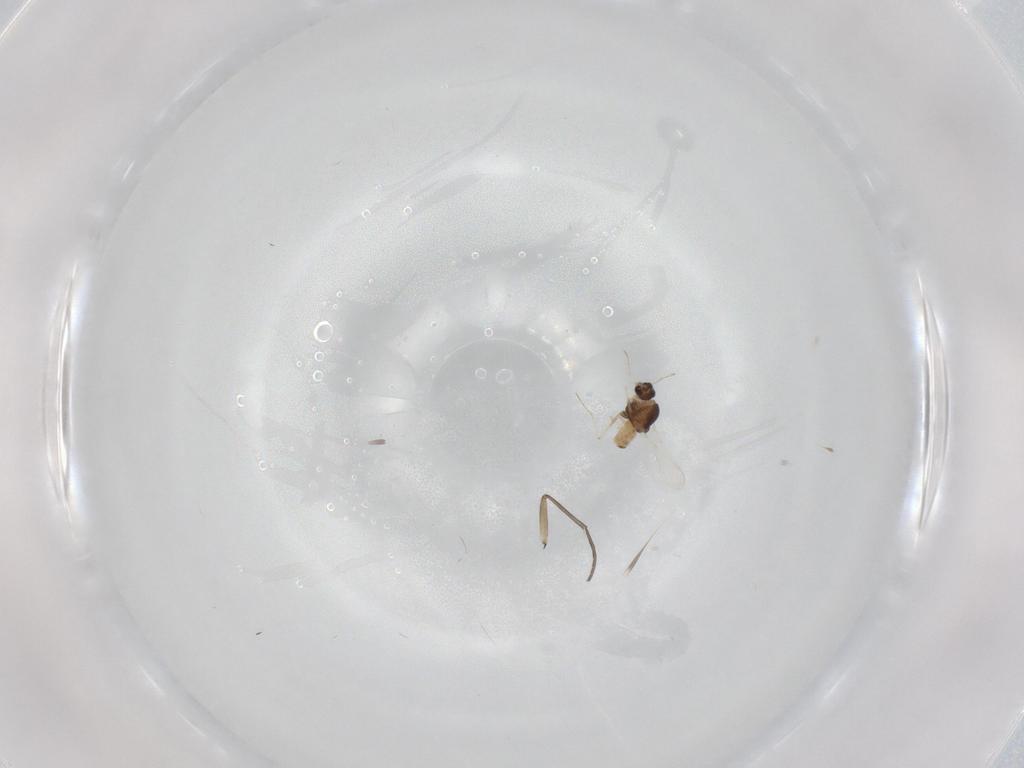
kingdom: Animalia
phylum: Arthropoda
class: Insecta
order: Diptera
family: Sciaridae
